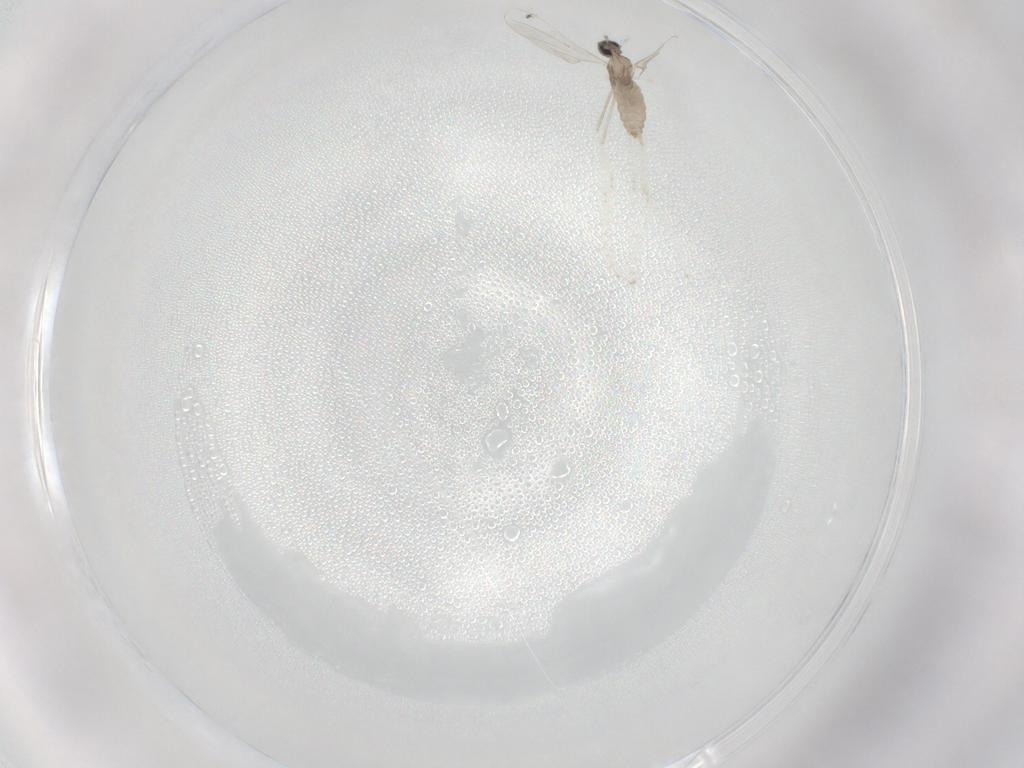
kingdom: Animalia
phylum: Arthropoda
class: Insecta
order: Diptera
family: Cecidomyiidae
